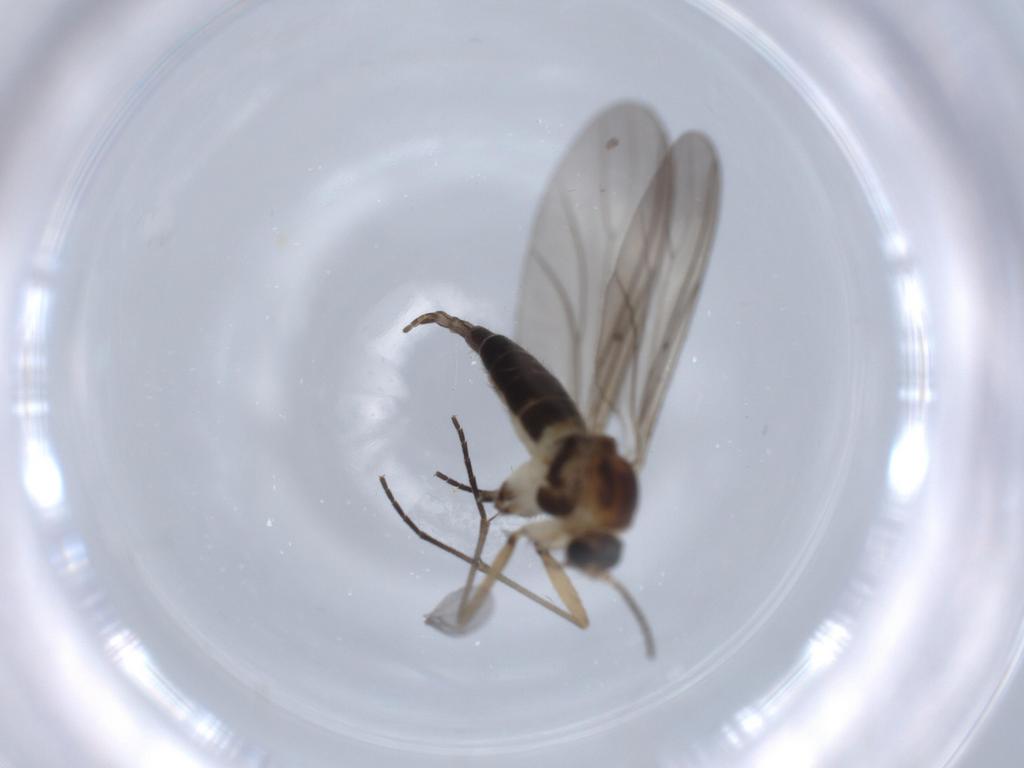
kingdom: Animalia
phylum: Arthropoda
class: Insecta
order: Diptera
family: Sciaridae
